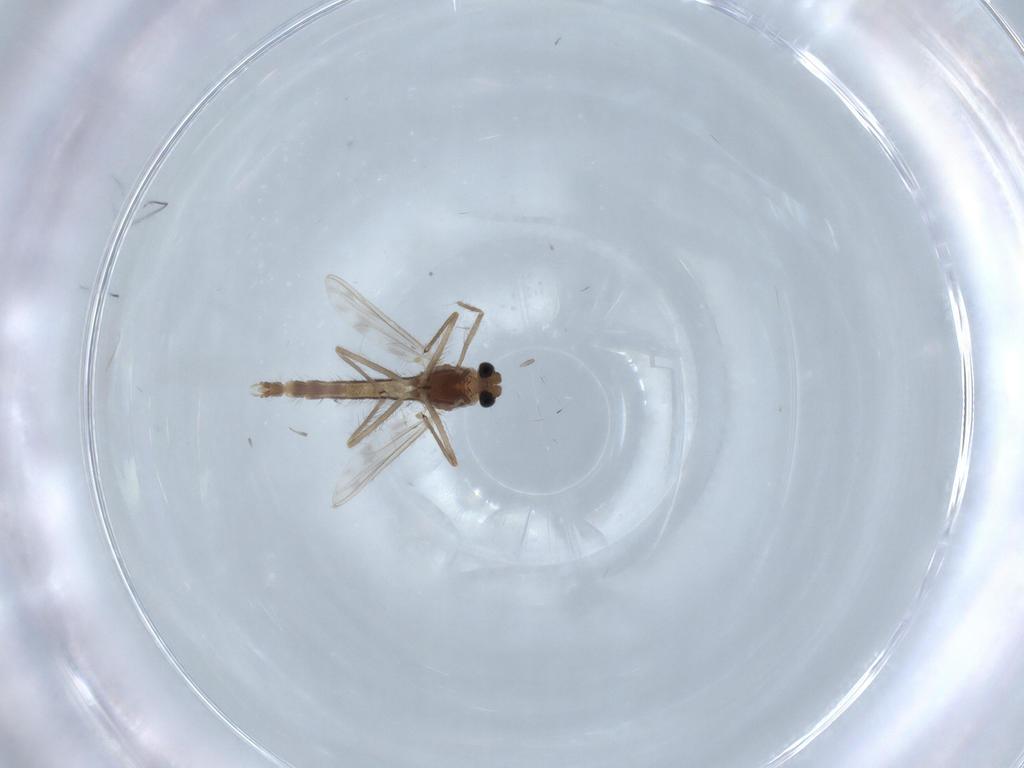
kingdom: Animalia
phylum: Arthropoda
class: Insecta
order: Diptera
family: Chironomidae
